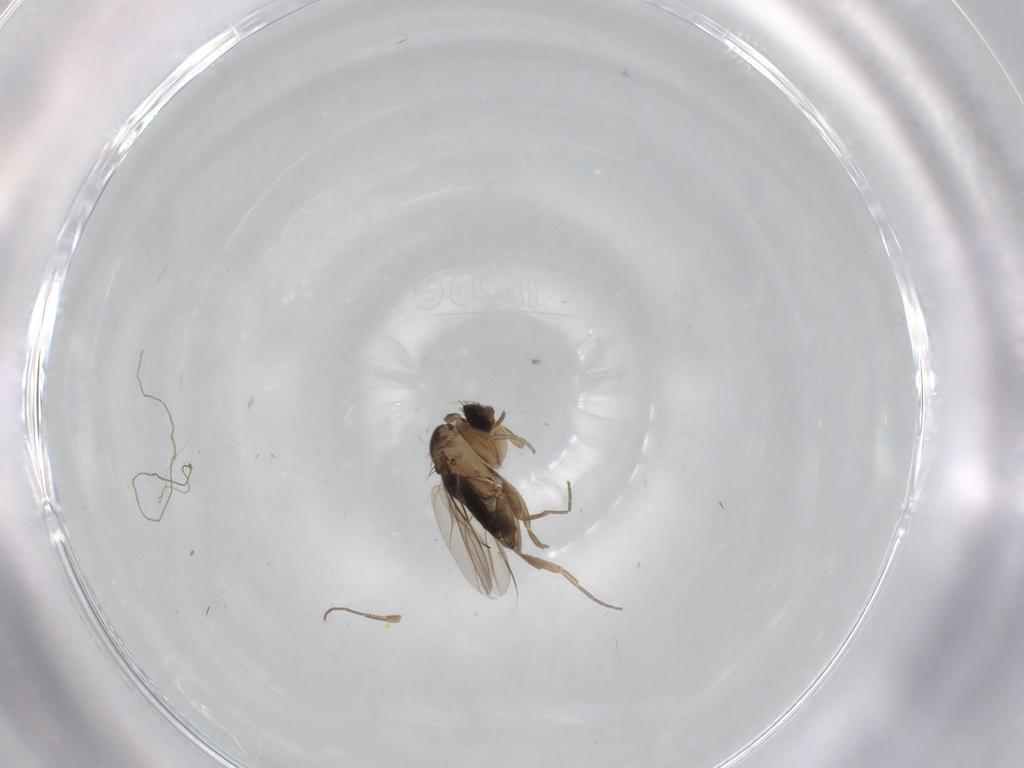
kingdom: Animalia
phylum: Arthropoda
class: Insecta
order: Diptera
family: Phoridae
